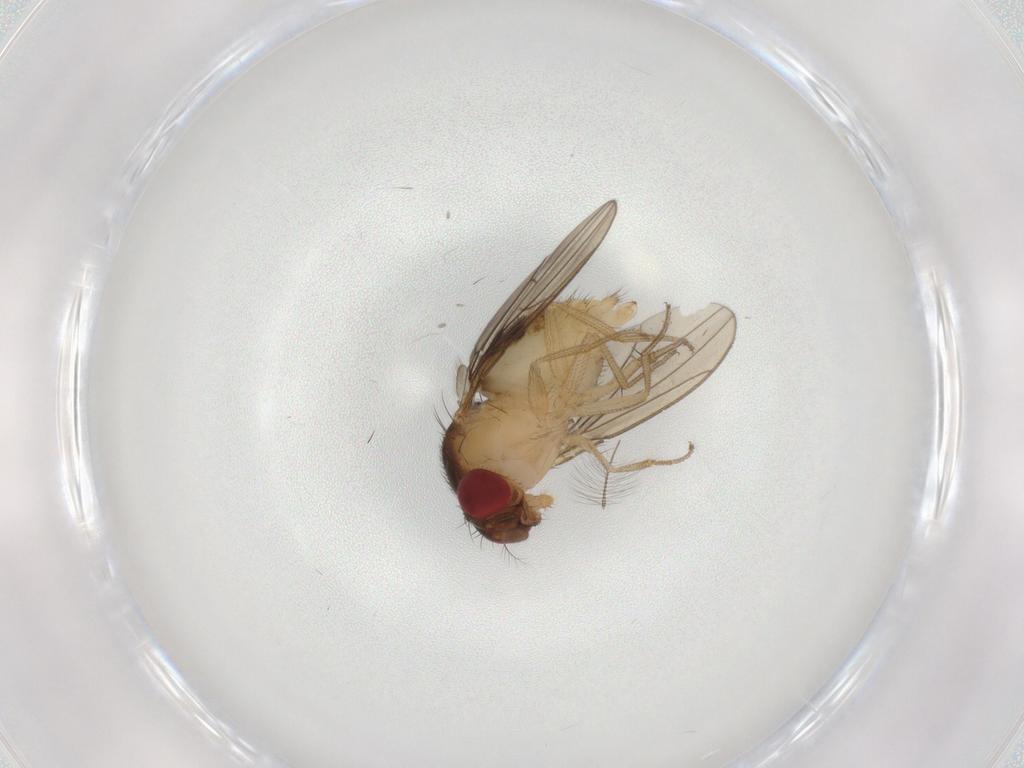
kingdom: Animalia
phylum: Arthropoda
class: Insecta
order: Diptera
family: Drosophilidae
